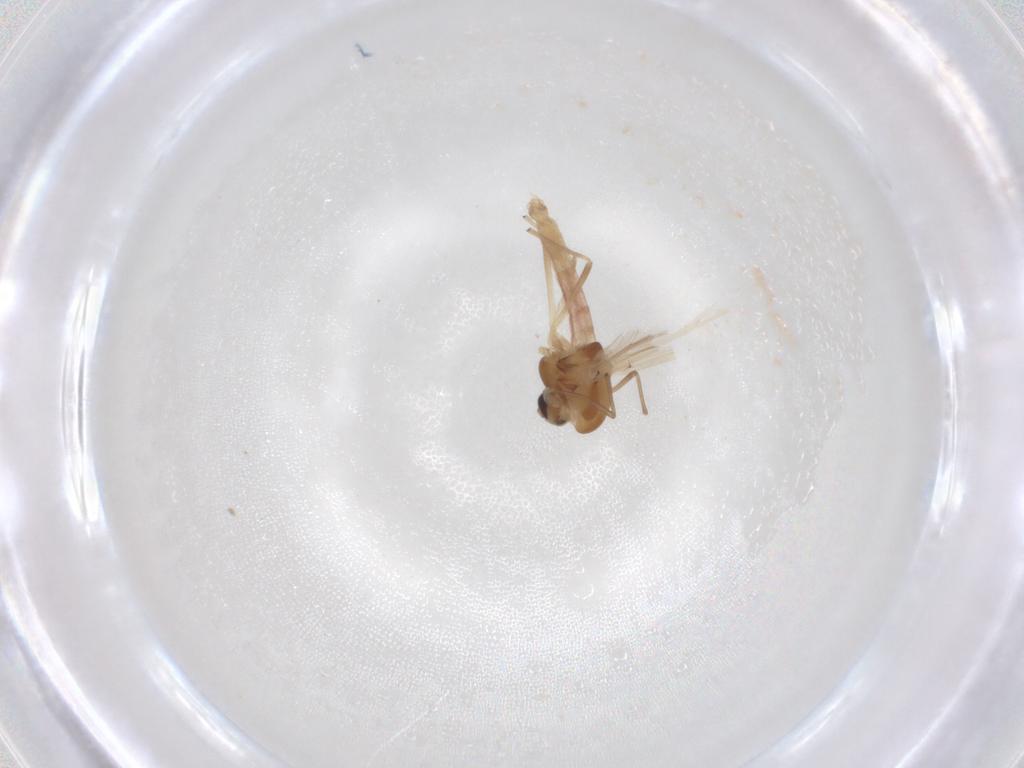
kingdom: Animalia
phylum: Arthropoda
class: Insecta
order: Diptera
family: Chironomidae
